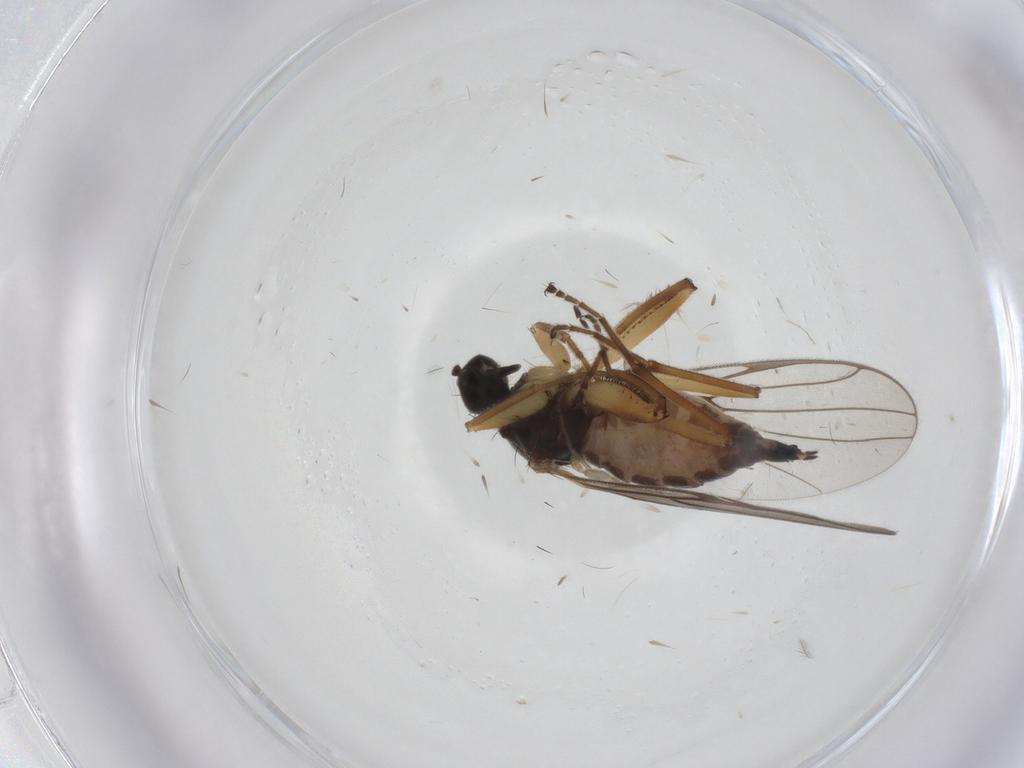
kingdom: Animalia
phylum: Arthropoda
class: Insecta
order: Diptera
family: Hybotidae
